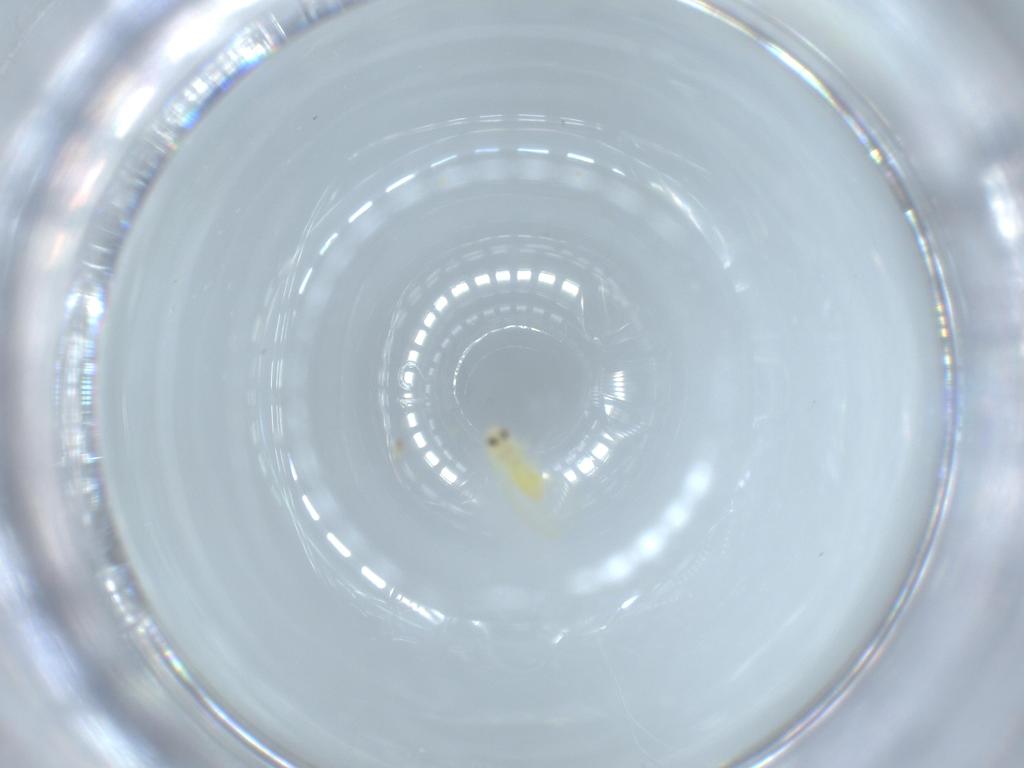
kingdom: Animalia
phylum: Arthropoda
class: Insecta
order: Hemiptera
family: Aleyrodidae
